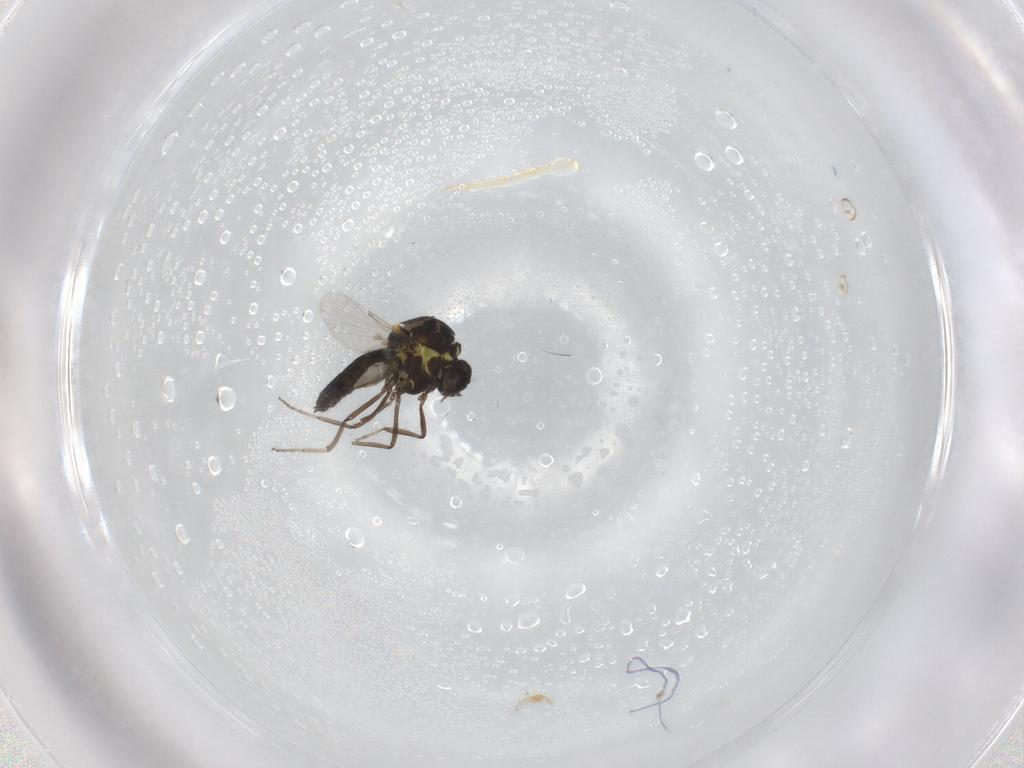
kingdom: Animalia
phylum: Arthropoda
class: Insecta
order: Diptera
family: Ceratopogonidae
